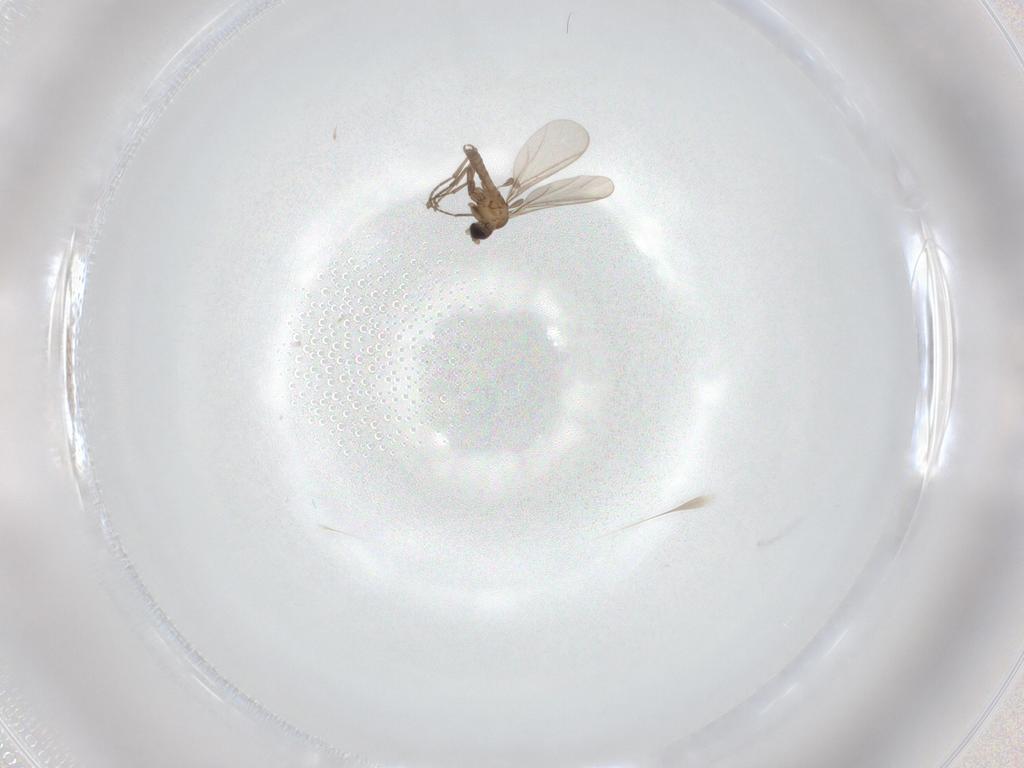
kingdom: Animalia
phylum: Arthropoda
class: Insecta
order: Diptera
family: Sciaridae
